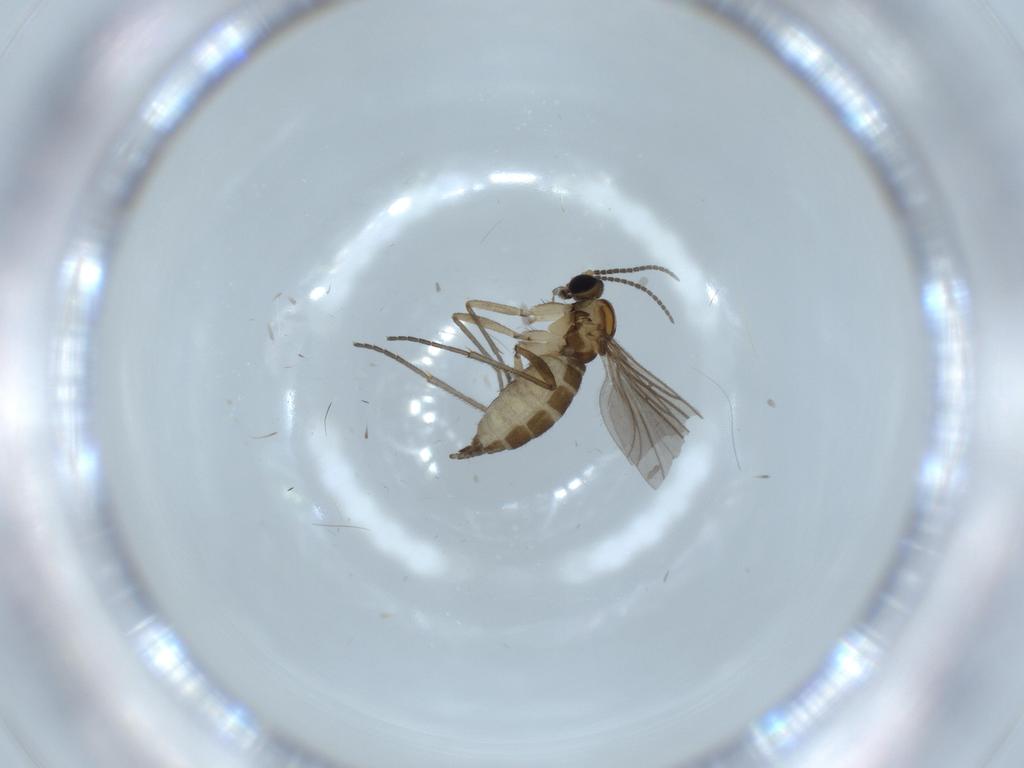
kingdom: Animalia
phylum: Arthropoda
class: Insecta
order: Diptera
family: Sciaridae
